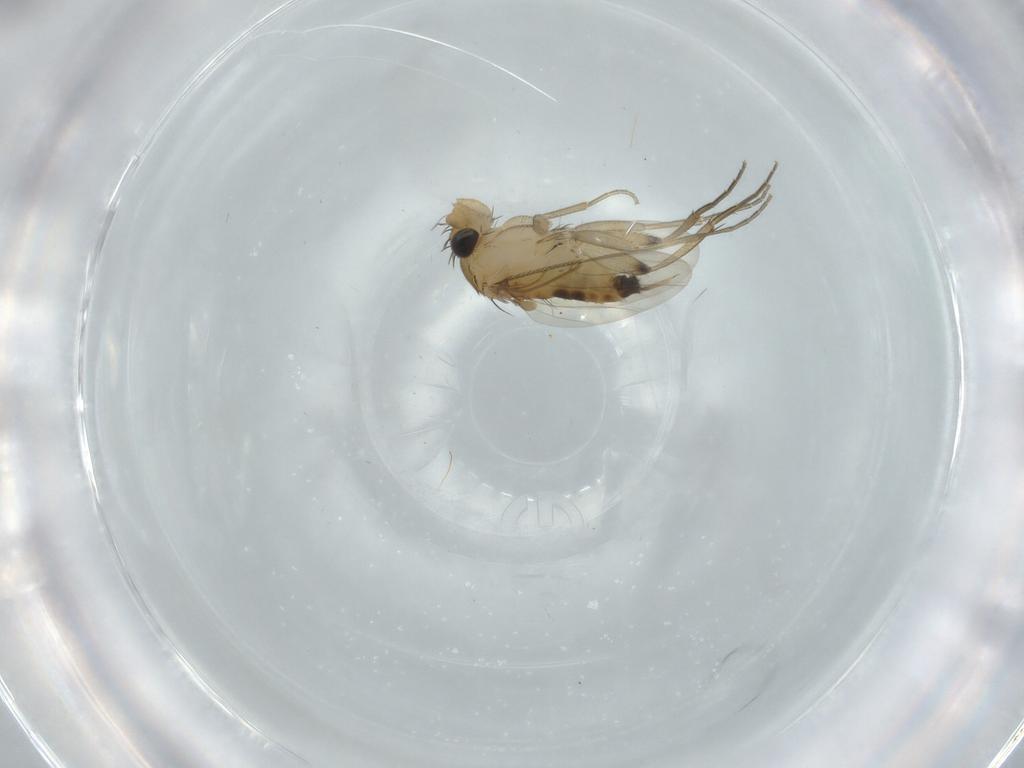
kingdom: Animalia
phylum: Arthropoda
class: Insecta
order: Diptera
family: Phoridae
